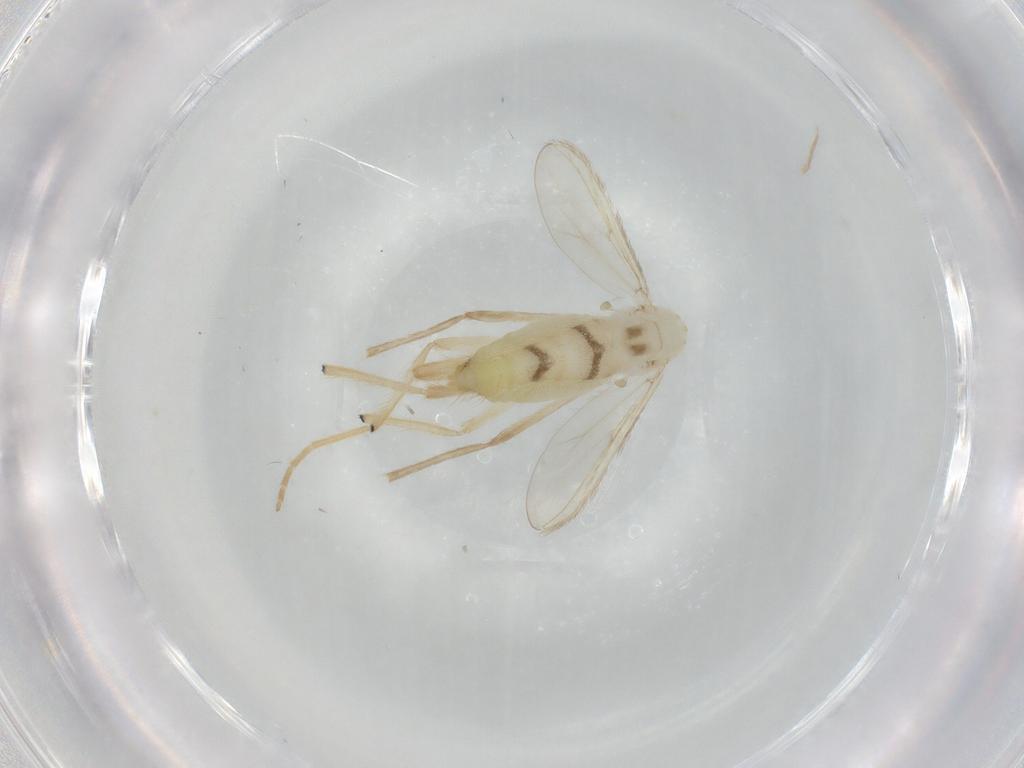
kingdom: Animalia
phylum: Arthropoda
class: Insecta
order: Diptera
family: Chironomidae
